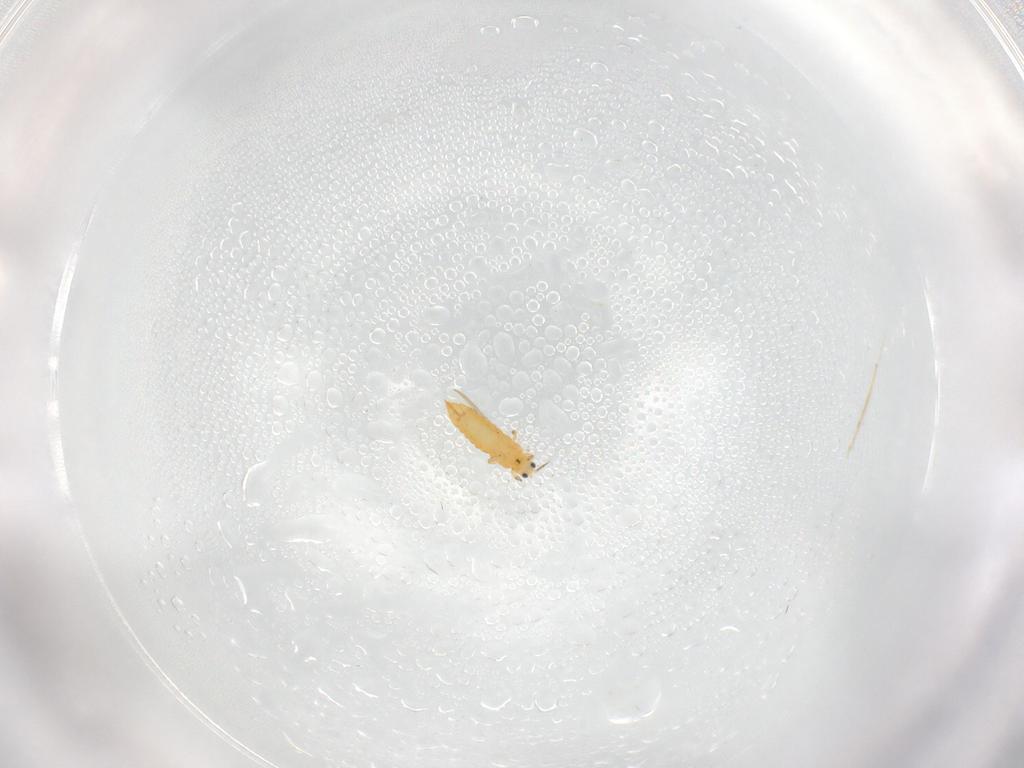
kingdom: Animalia
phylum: Arthropoda
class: Insecta
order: Thysanoptera
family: Thripidae
